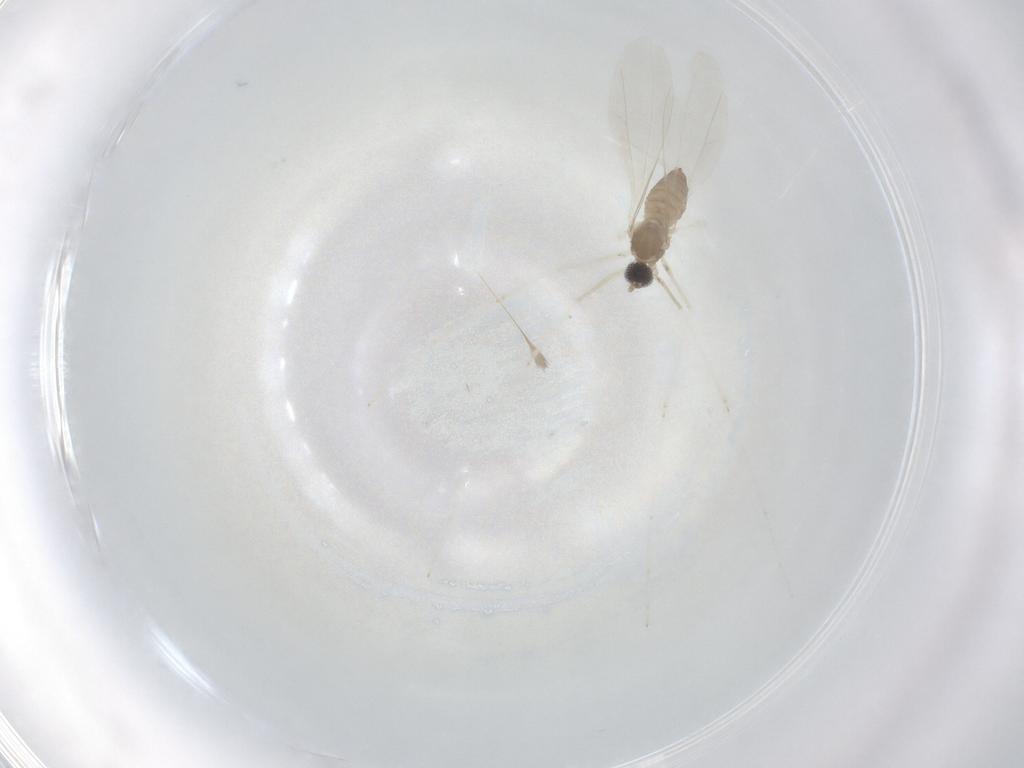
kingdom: Animalia
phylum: Arthropoda
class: Insecta
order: Diptera
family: Cecidomyiidae
